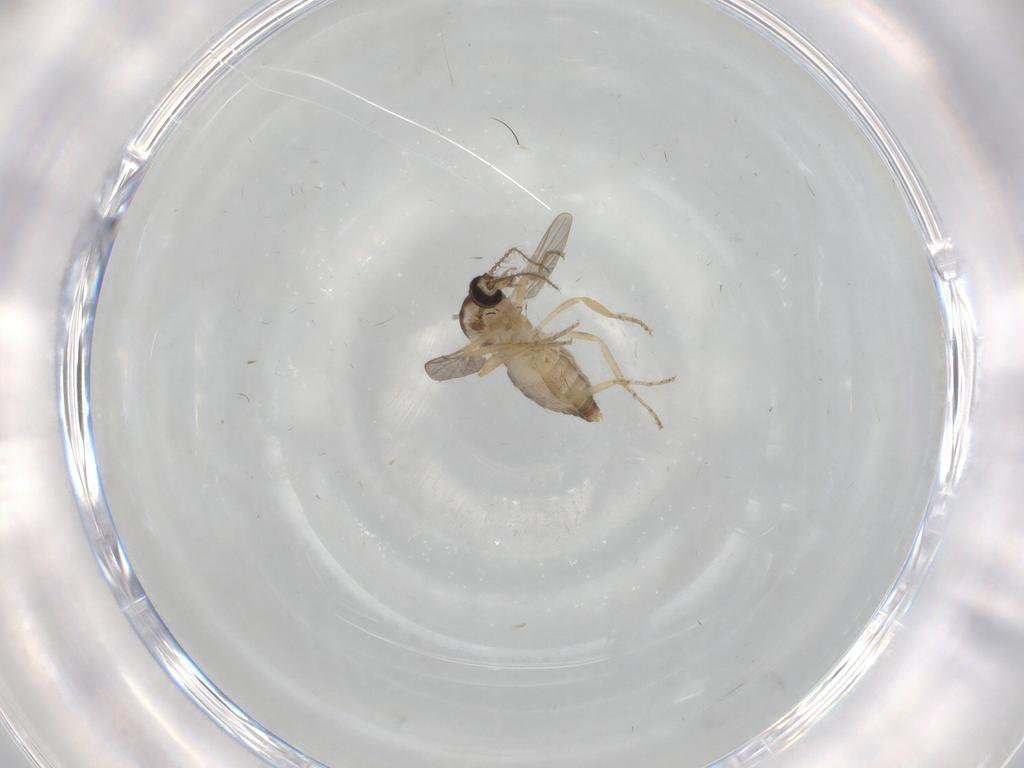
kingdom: Animalia
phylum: Arthropoda
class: Insecta
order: Diptera
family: Ceratopogonidae
